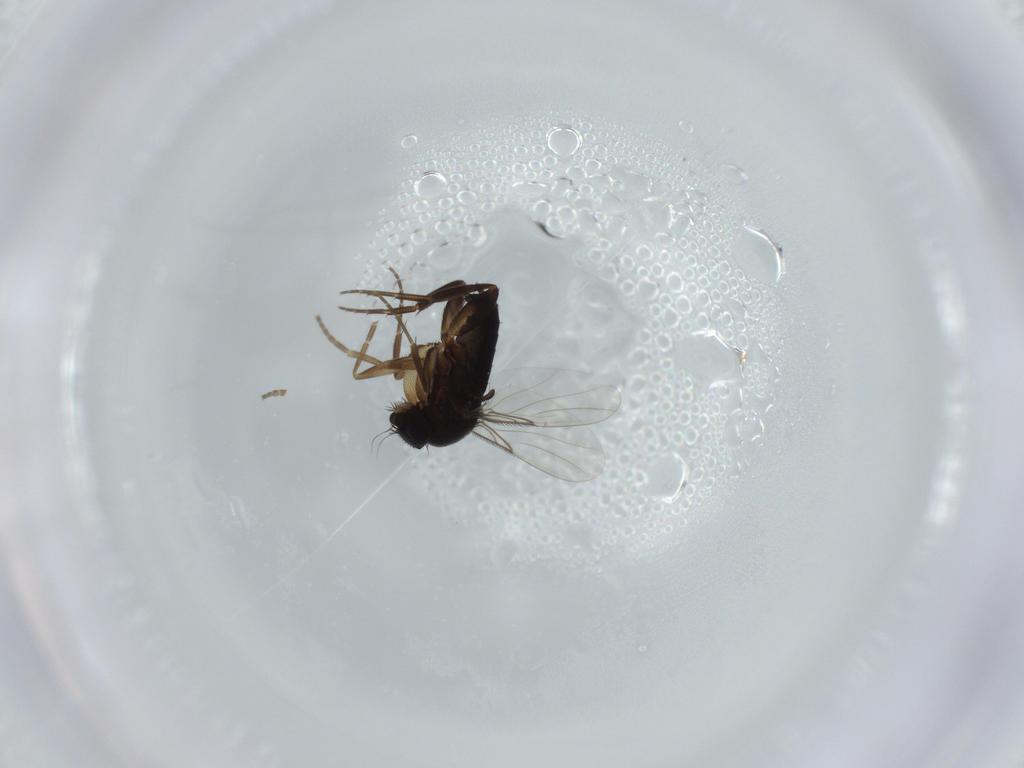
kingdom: Animalia
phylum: Arthropoda
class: Insecta
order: Diptera
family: Phoridae
